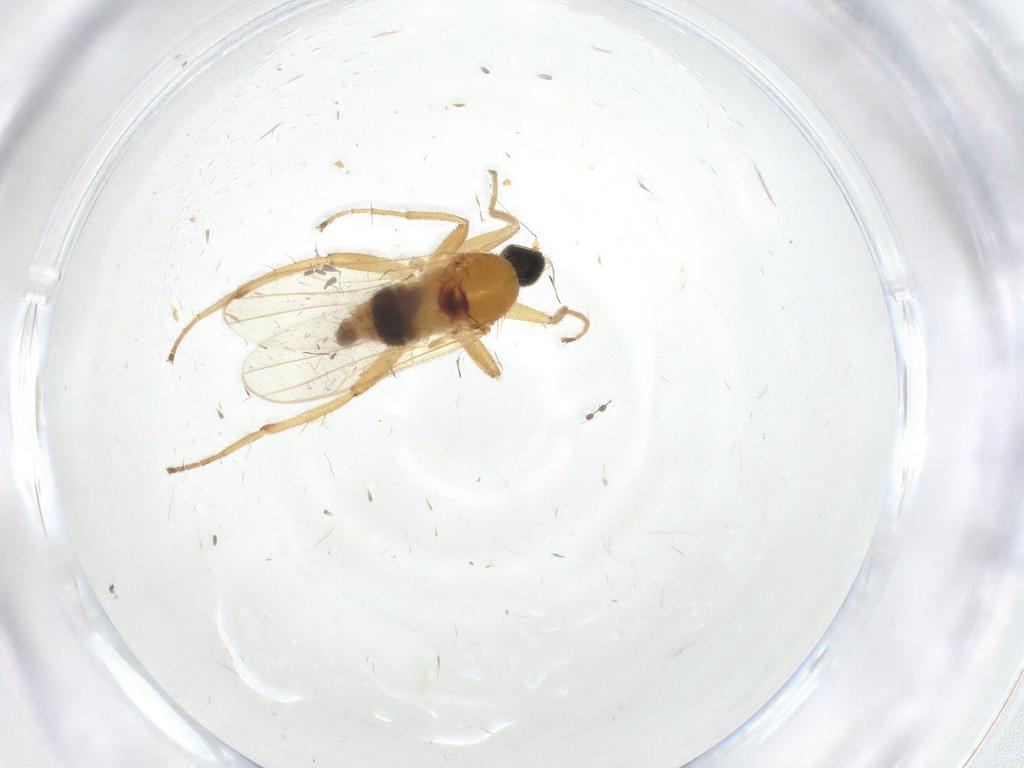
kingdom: Animalia
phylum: Arthropoda
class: Insecta
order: Diptera
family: Hybotidae
